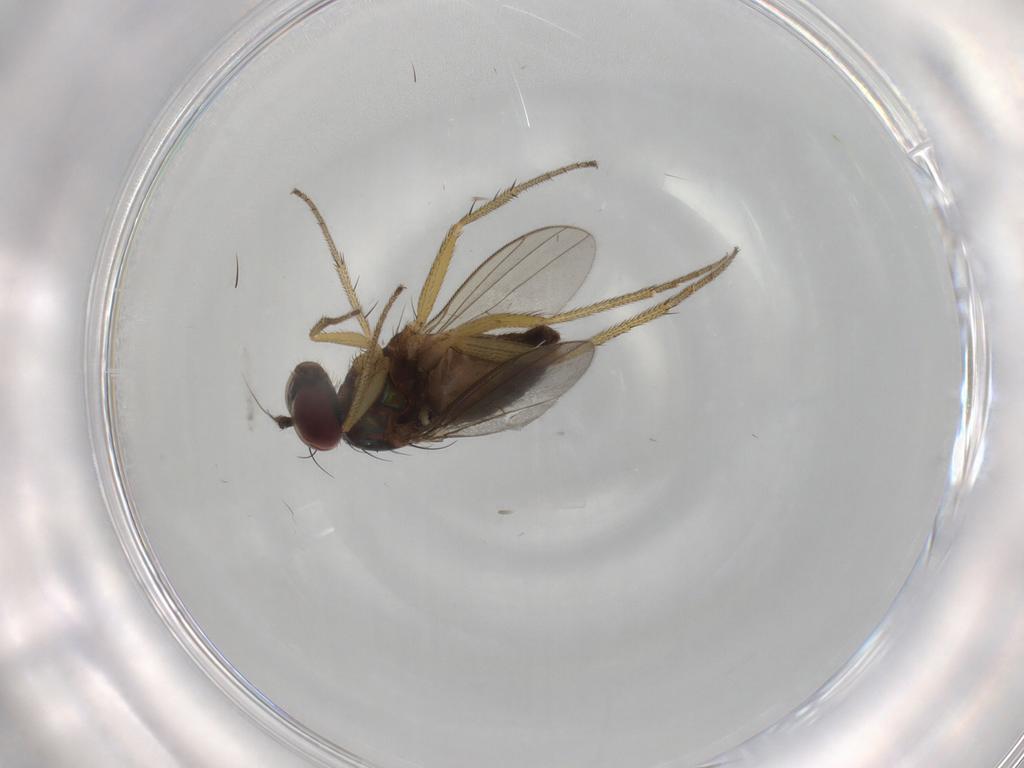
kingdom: Animalia
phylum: Arthropoda
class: Insecta
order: Diptera
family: Dolichopodidae
